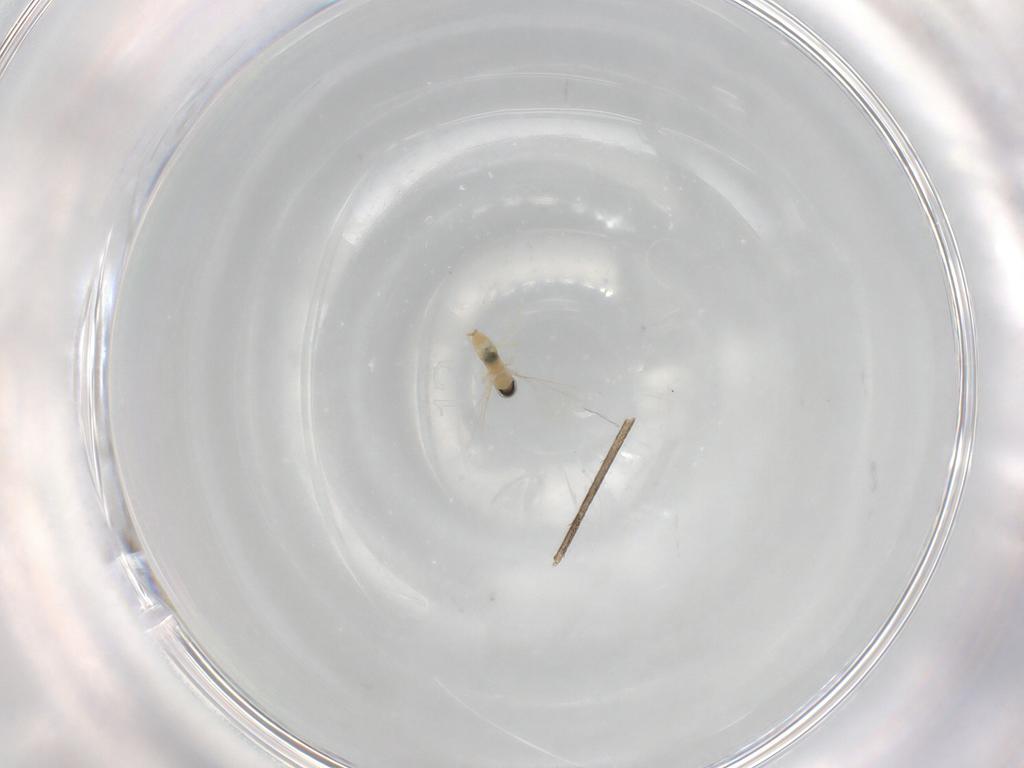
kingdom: Animalia
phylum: Arthropoda
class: Insecta
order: Diptera
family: Sciaridae
